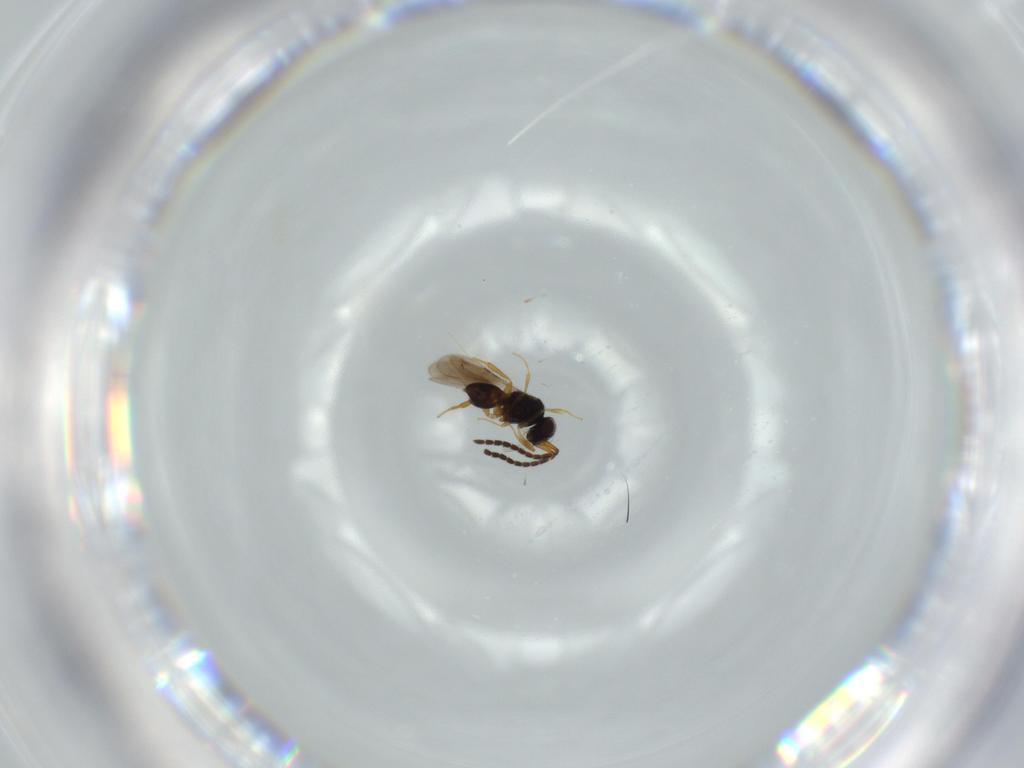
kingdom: Animalia
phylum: Arthropoda
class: Insecta
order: Hymenoptera
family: Ceraphronidae
